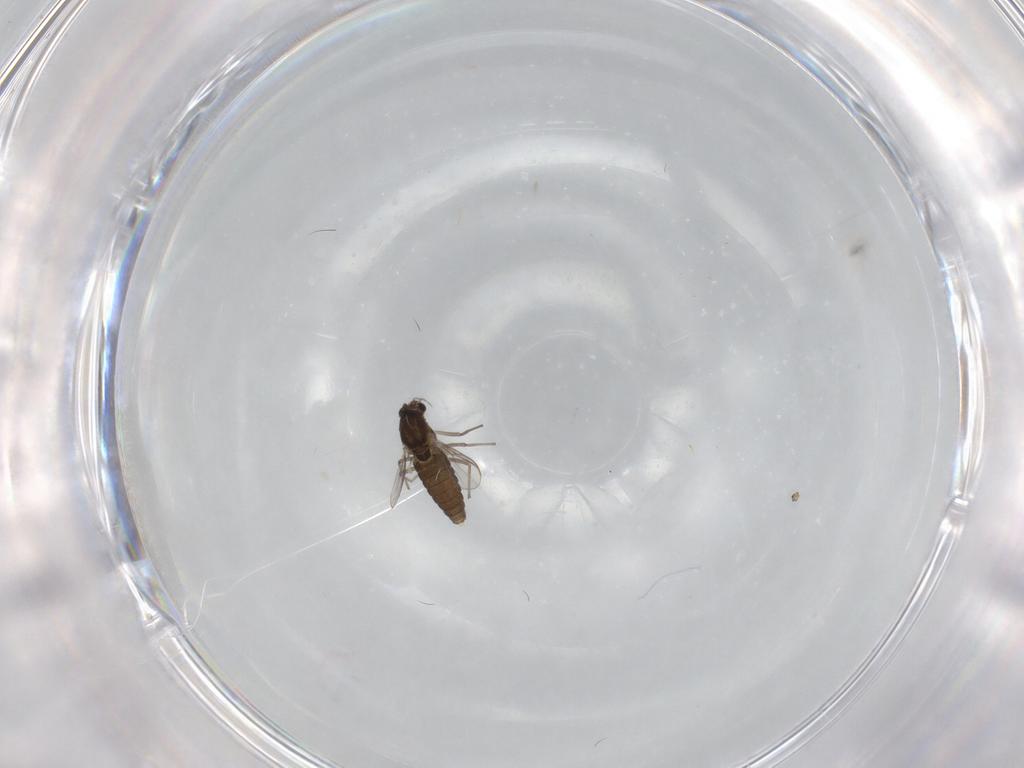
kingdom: Animalia
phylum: Arthropoda
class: Insecta
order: Diptera
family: Chironomidae
